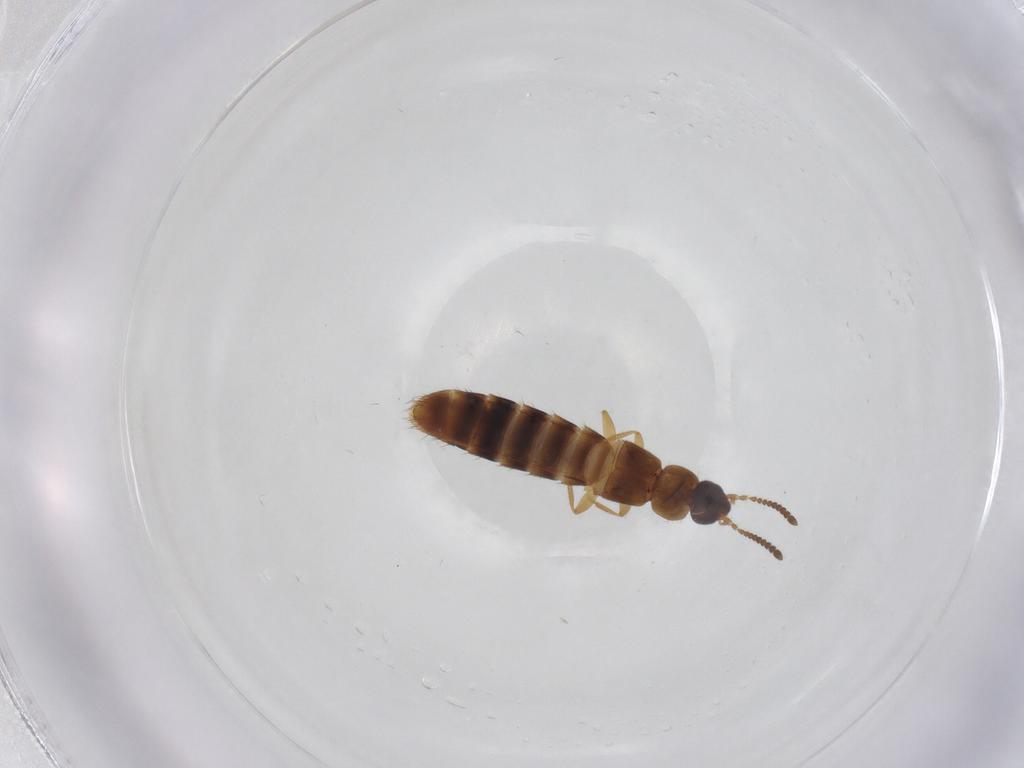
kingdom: Animalia
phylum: Arthropoda
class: Insecta
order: Coleoptera
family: Staphylinidae
